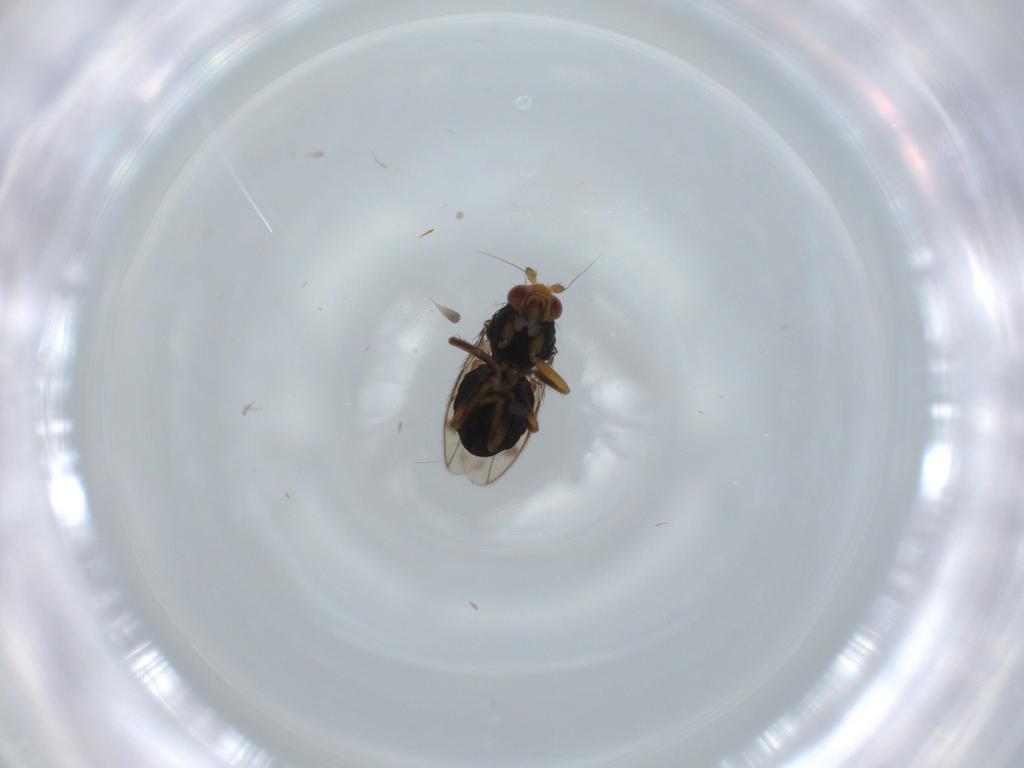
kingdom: Animalia
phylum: Arthropoda
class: Insecta
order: Diptera
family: Sphaeroceridae
